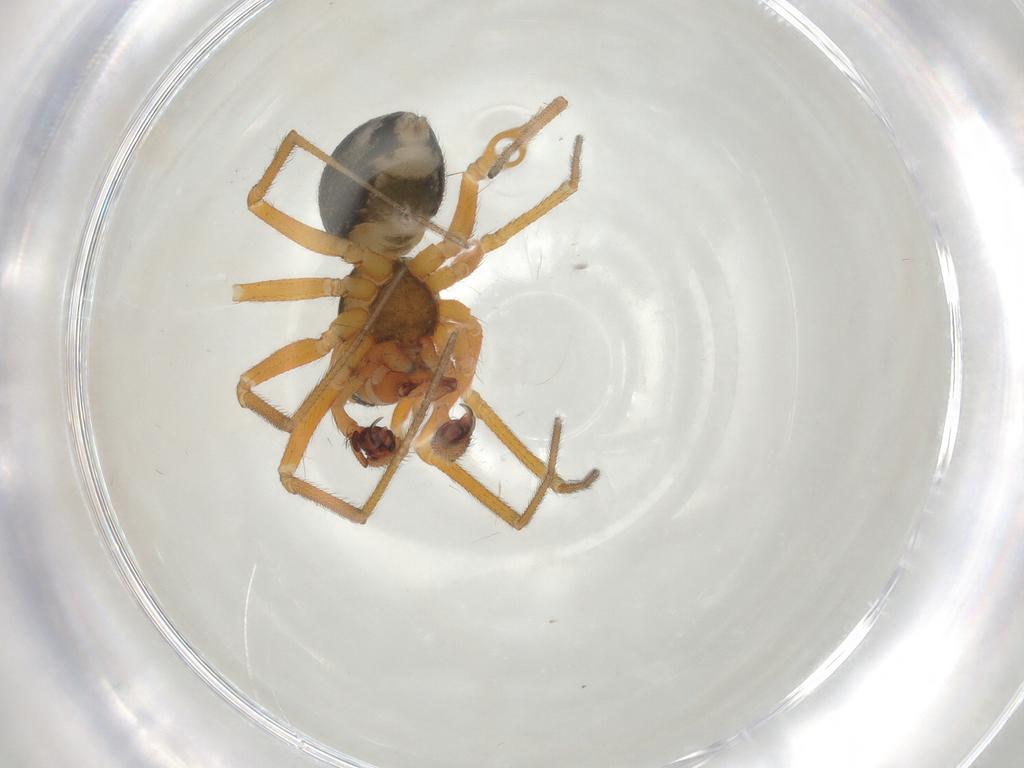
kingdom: Animalia
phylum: Arthropoda
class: Arachnida
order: Araneae
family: Linyphiidae
